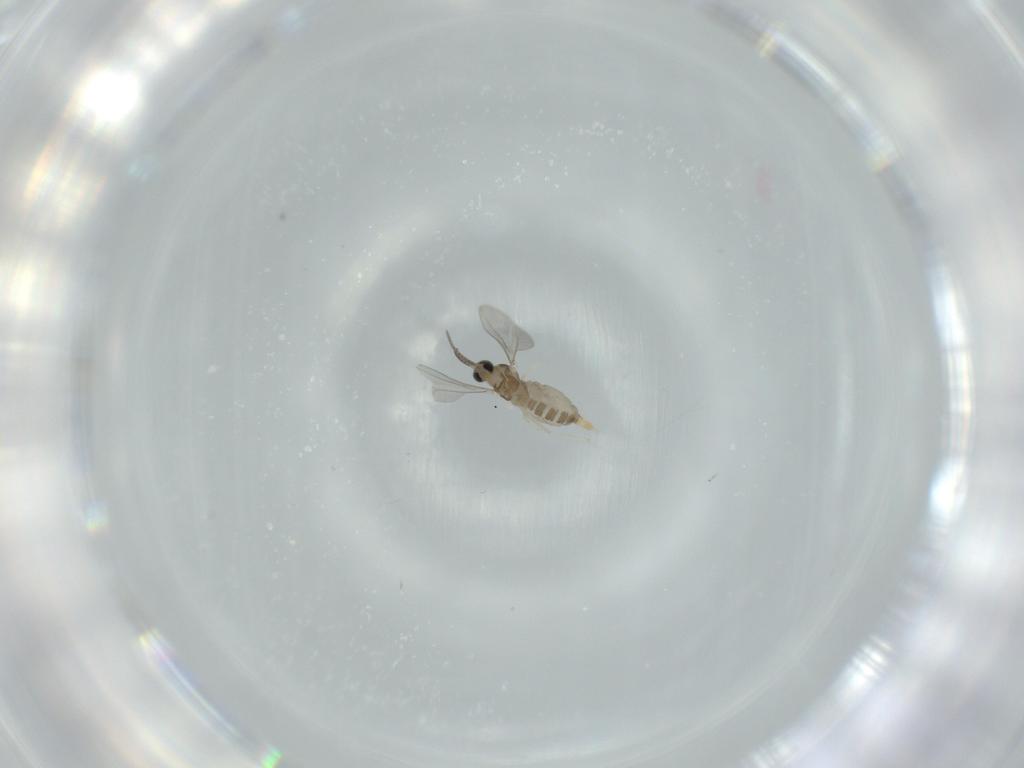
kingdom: Animalia
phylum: Arthropoda
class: Insecta
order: Diptera
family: Cecidomyiidae
